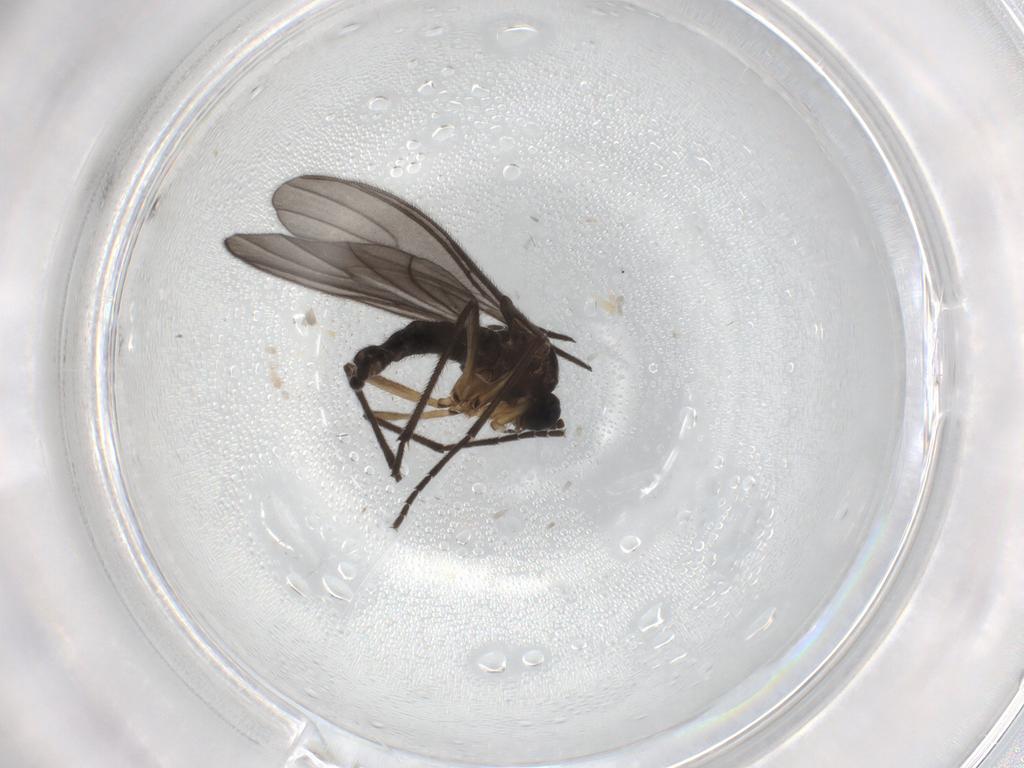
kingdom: Animalia
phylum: Arthropoda
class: Insecta
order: Diptera
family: Sciaridae
